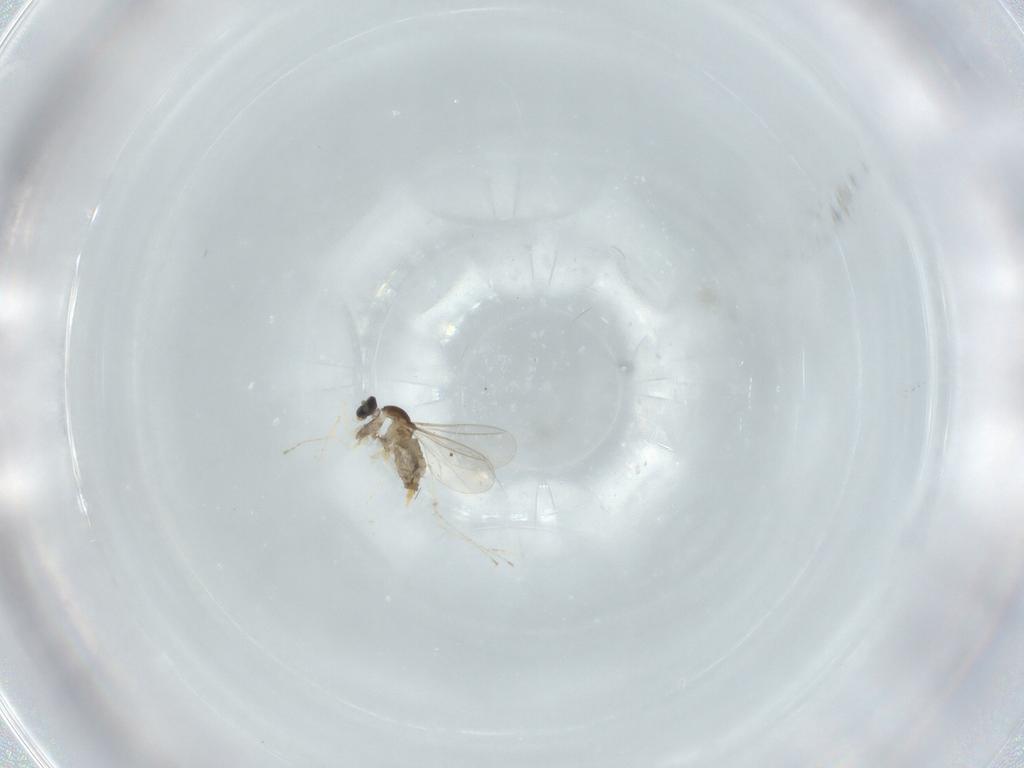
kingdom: Animalia
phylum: Arthropoda
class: Insecta
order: Diptera
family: Cecidomyiidae
